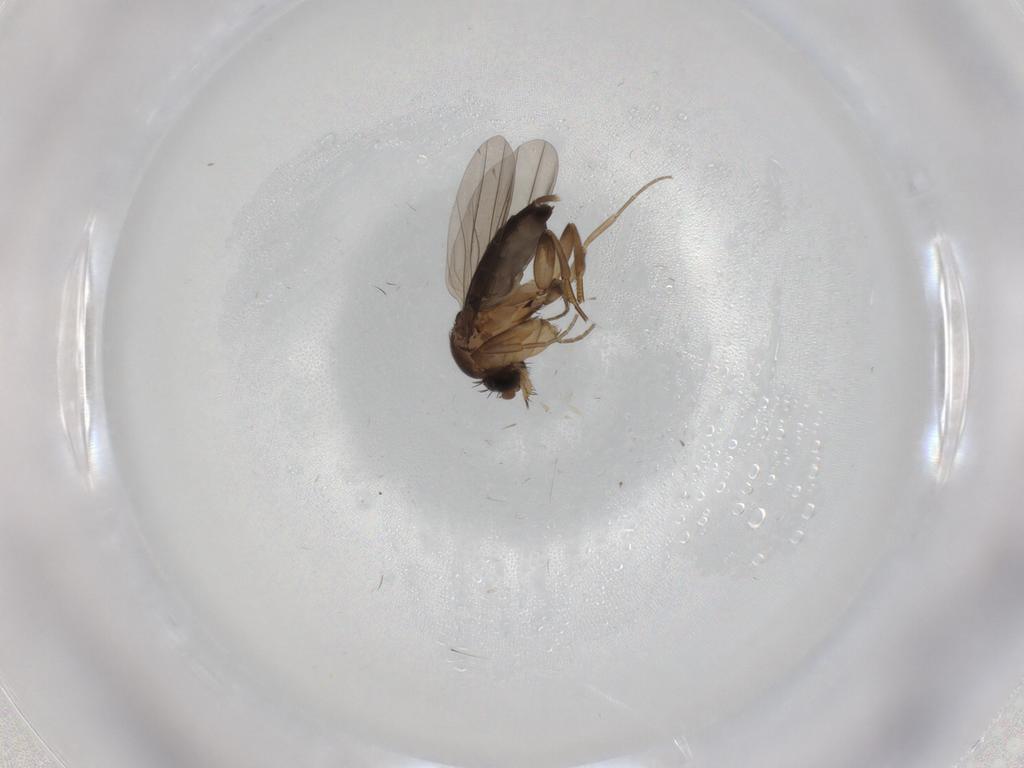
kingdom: Animalia
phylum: Arthropoda
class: Insecta
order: Diptera
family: Phoridae
